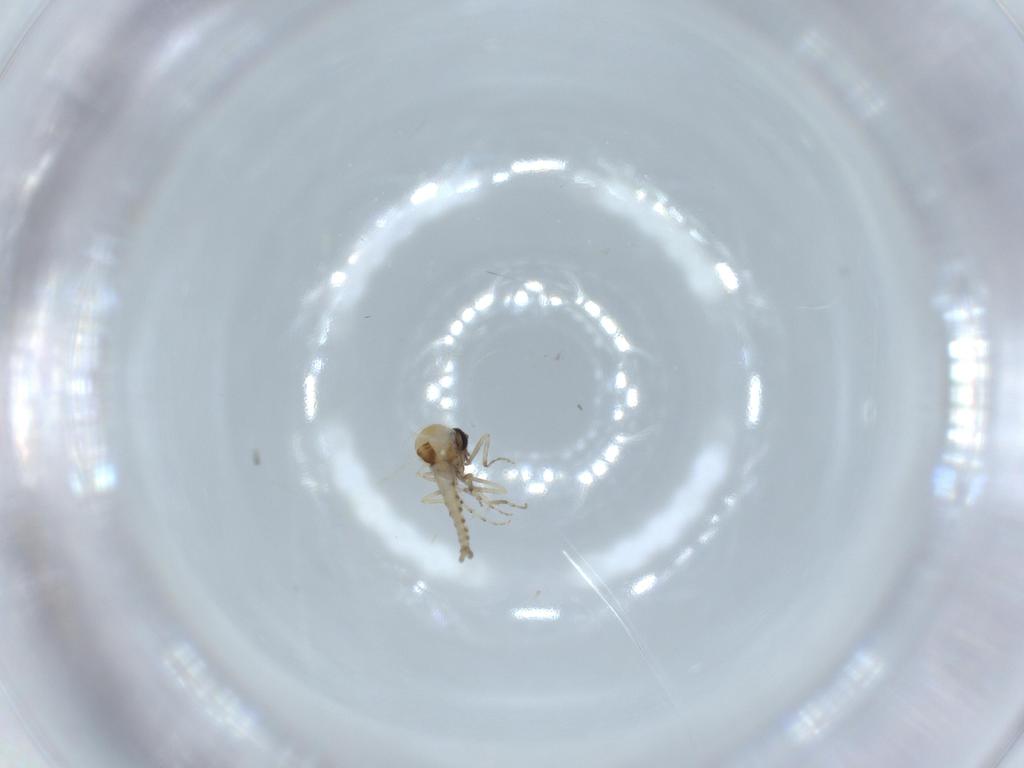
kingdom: Animalia
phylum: Arthropoda
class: Insecta
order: Diptera
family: Ceratopogonidae
